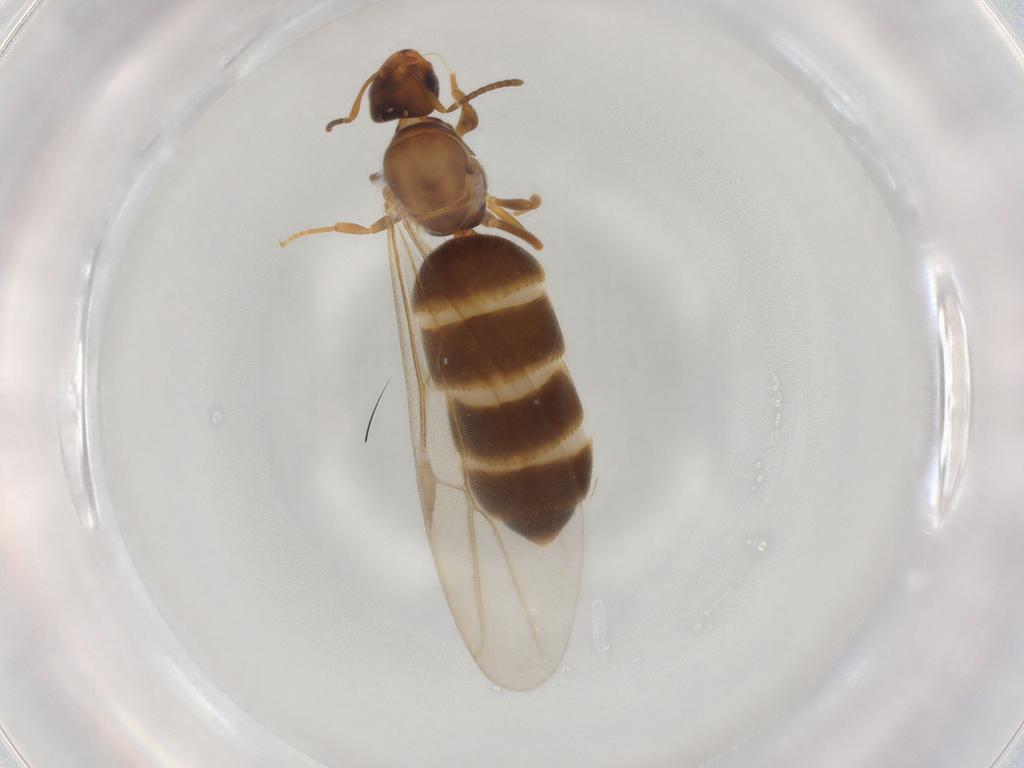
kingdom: Animalia
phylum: Arthropoda
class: Insecta
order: Hymenoptera
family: Formicidae
